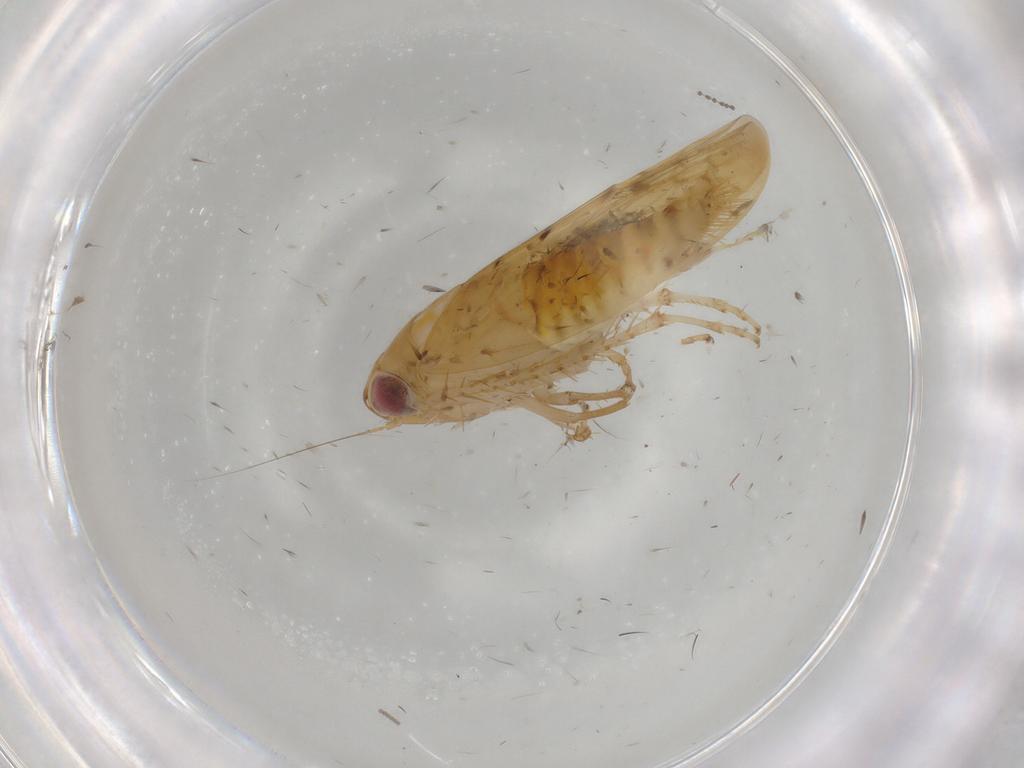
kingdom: Animalia
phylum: Arthropoda
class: Insecta
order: Hemiptera
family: Cicadellidae
